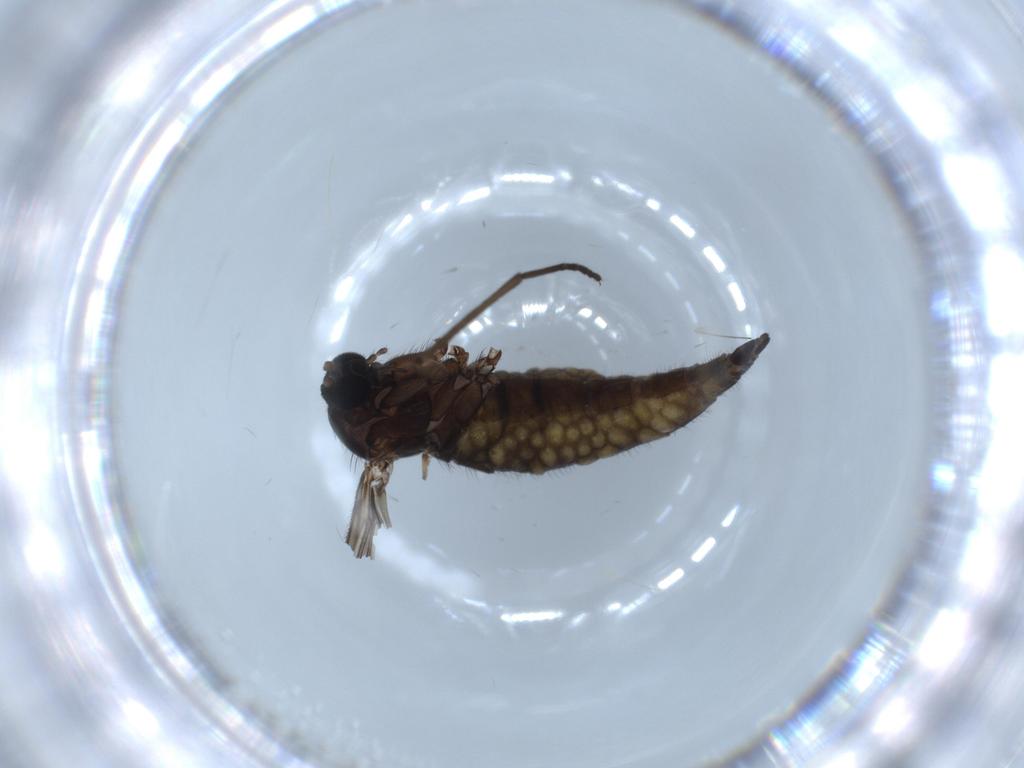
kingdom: Animalia
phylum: Arthropoda
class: Insecta
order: Diptera
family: Sciaridae
